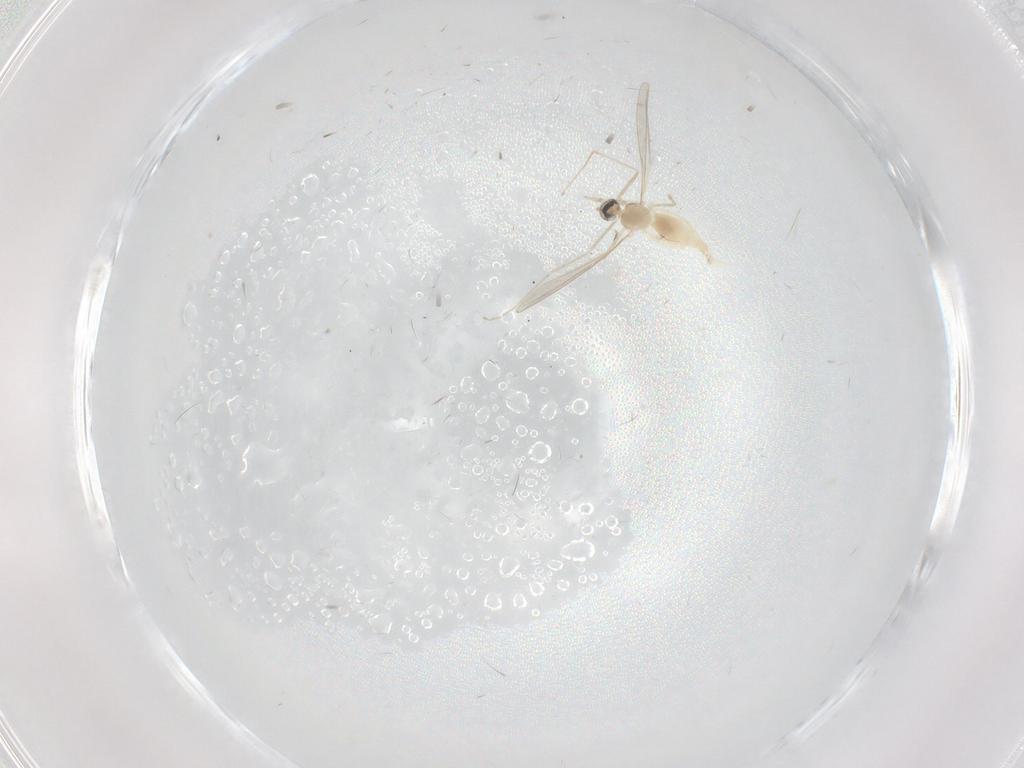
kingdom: Animalia
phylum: Arthropoda
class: Insecta
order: Diptera
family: Cecidomyiidae
